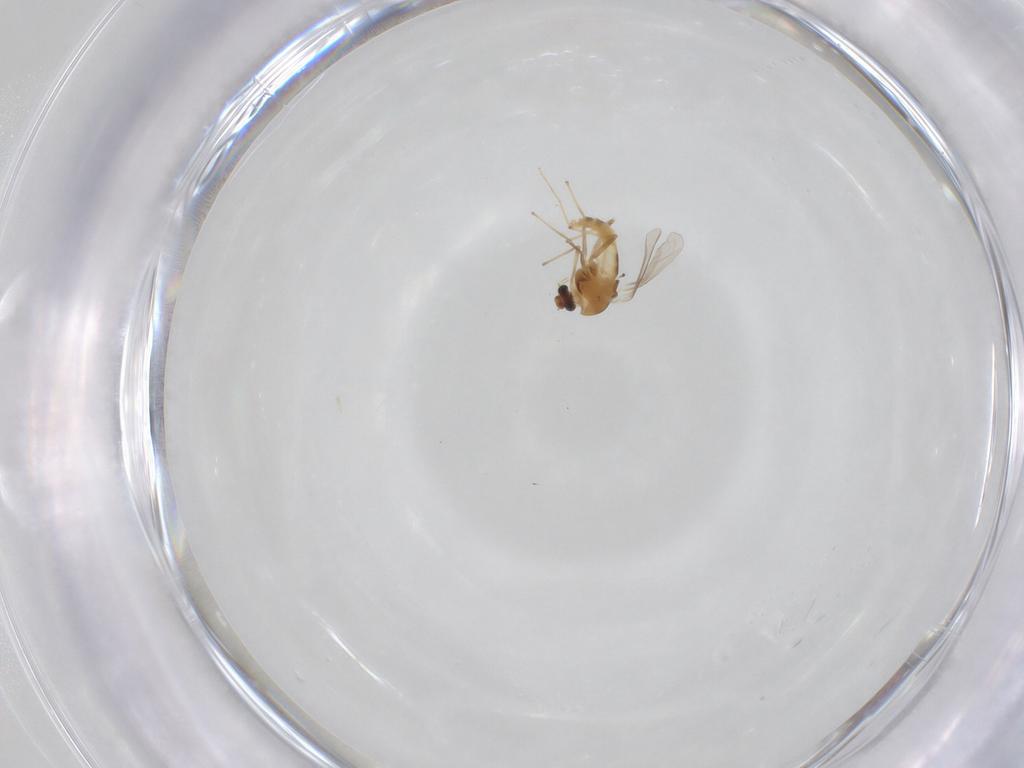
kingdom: Animalia
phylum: Arthropoda
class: Insecta
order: Diptera
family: Chironomidae
